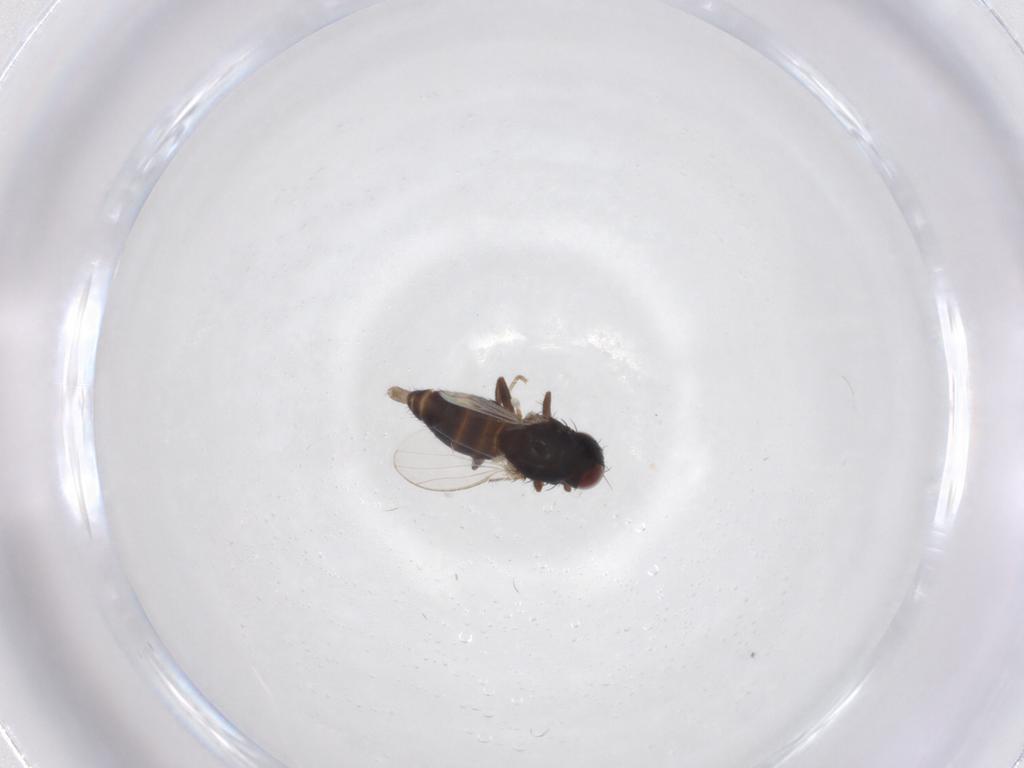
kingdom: Animalia
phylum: Arthropoda
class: Insecta
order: Diptera
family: Carnidae
